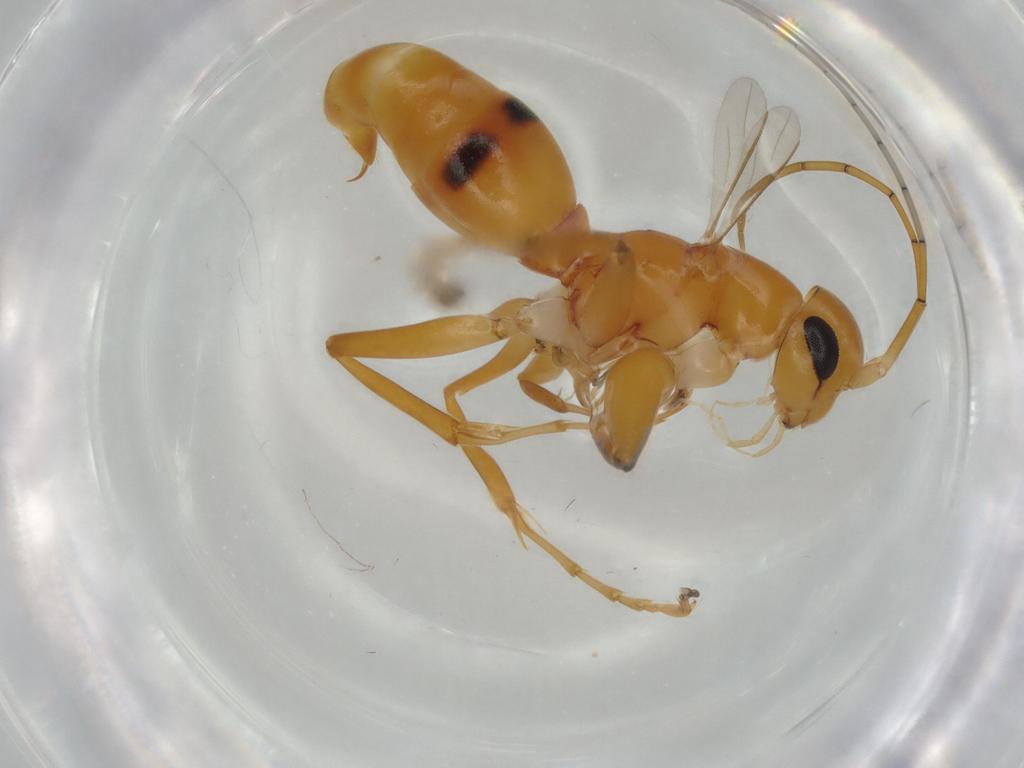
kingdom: Animalia
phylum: Arthropoda
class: Insecta
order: Hymenoptera
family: Rhopalosomatidae
